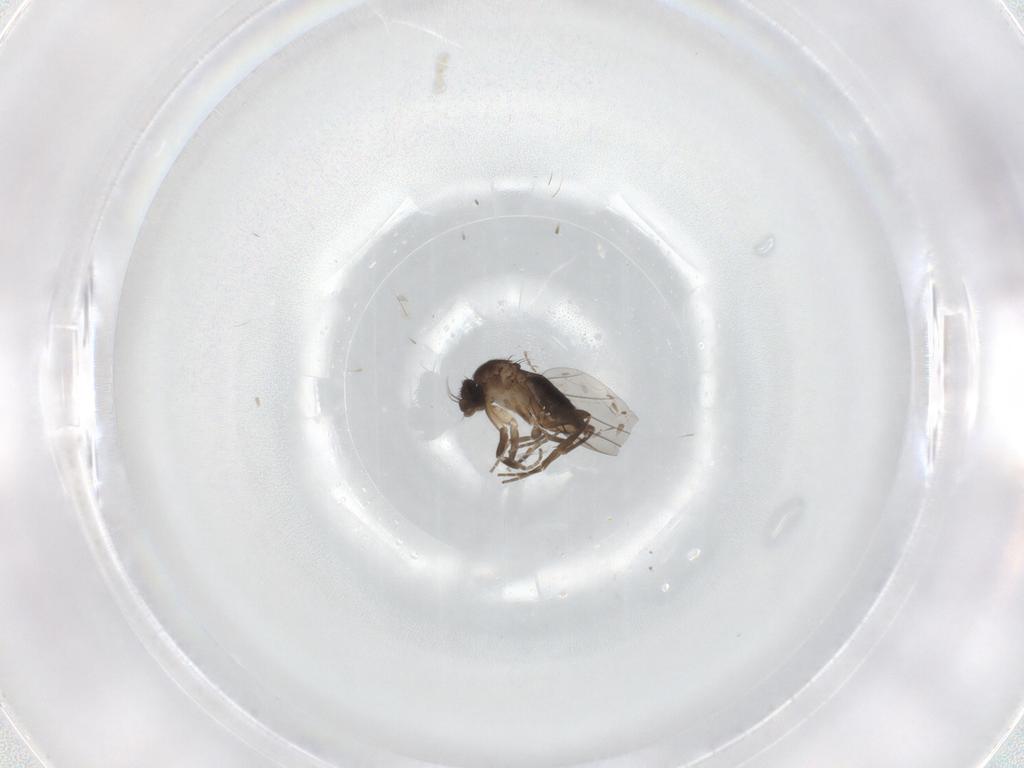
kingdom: Animalia
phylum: Arthropoda
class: Insecta
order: Diptera
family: Phoridae
